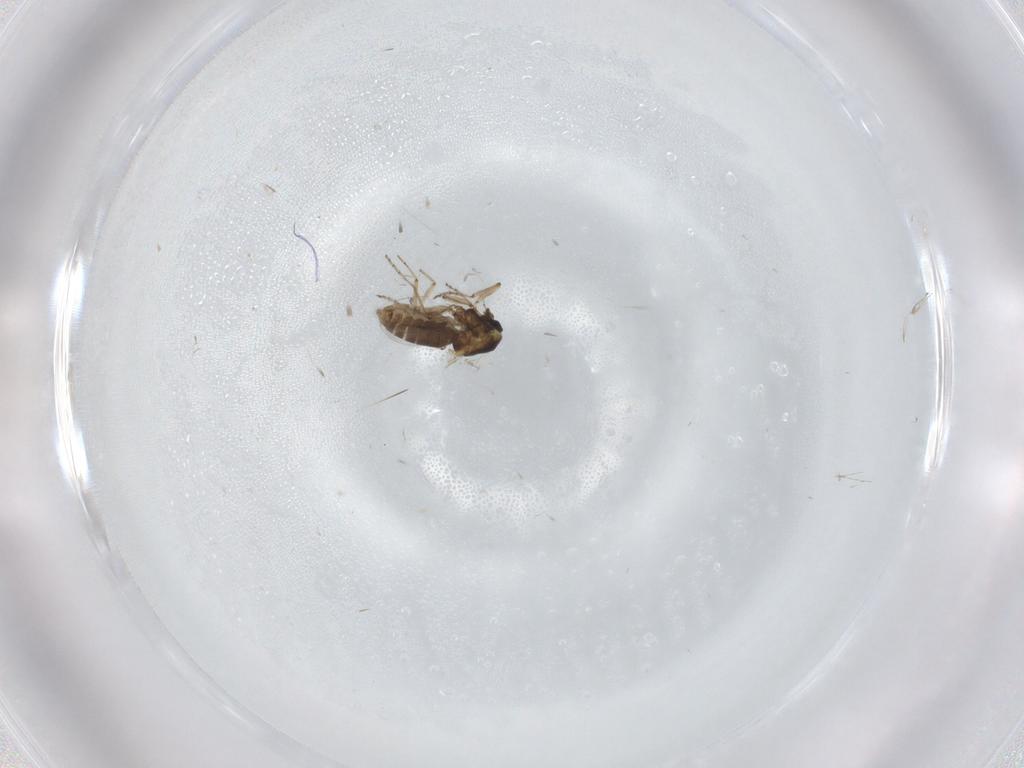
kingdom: Animalia
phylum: Arthropoda
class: Insecta
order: Diptera
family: Ceratopogonidae
